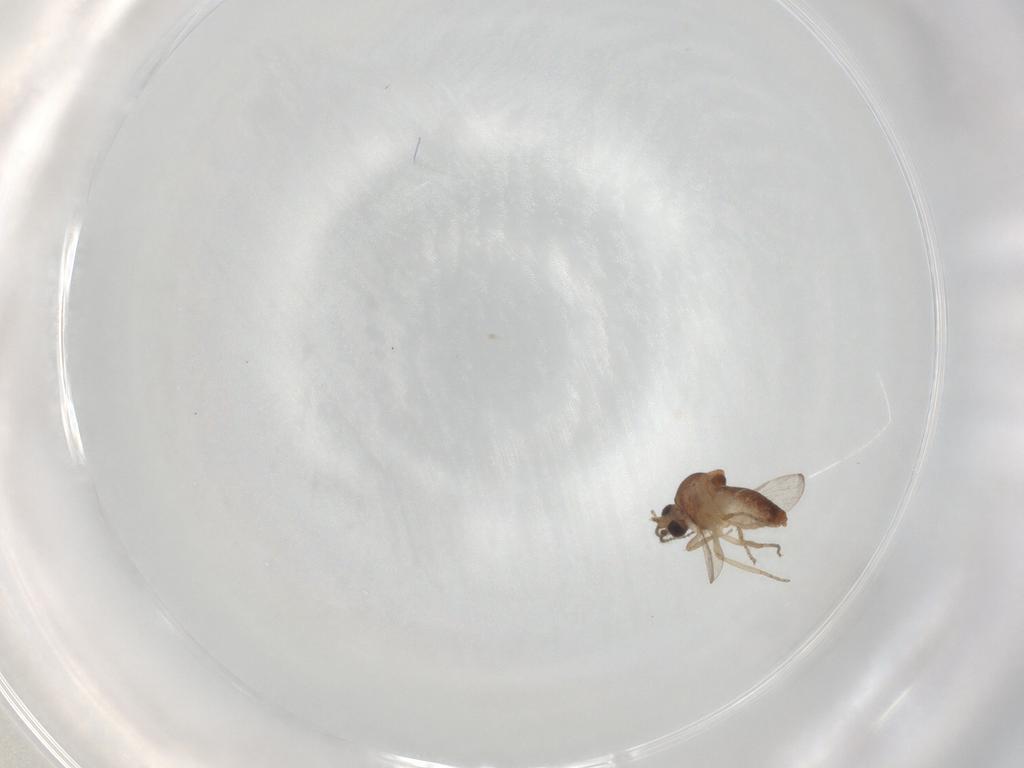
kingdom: Animalia
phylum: Arthropoda
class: Insecta
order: Diptera
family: Ceratopogonidae
